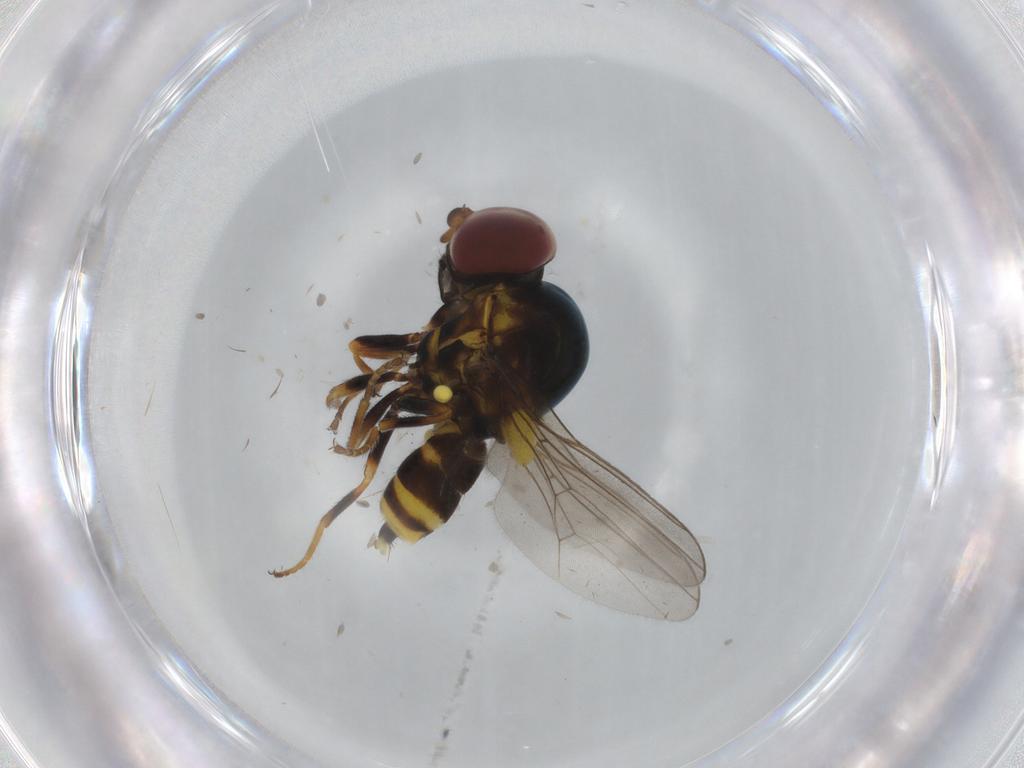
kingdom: Animalia
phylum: Arthropoda
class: Insecta
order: Diptera
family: Chloropidae
